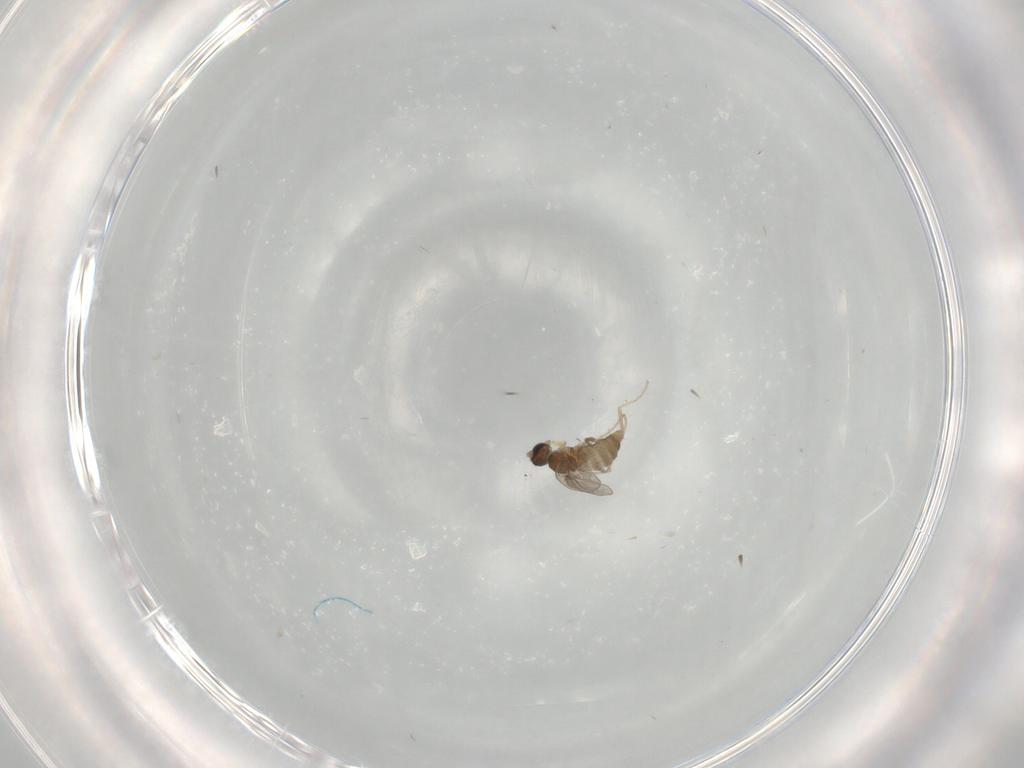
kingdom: Animalia
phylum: Arthropoda
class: Insecta
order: Diptera
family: Cecidomyiidae
